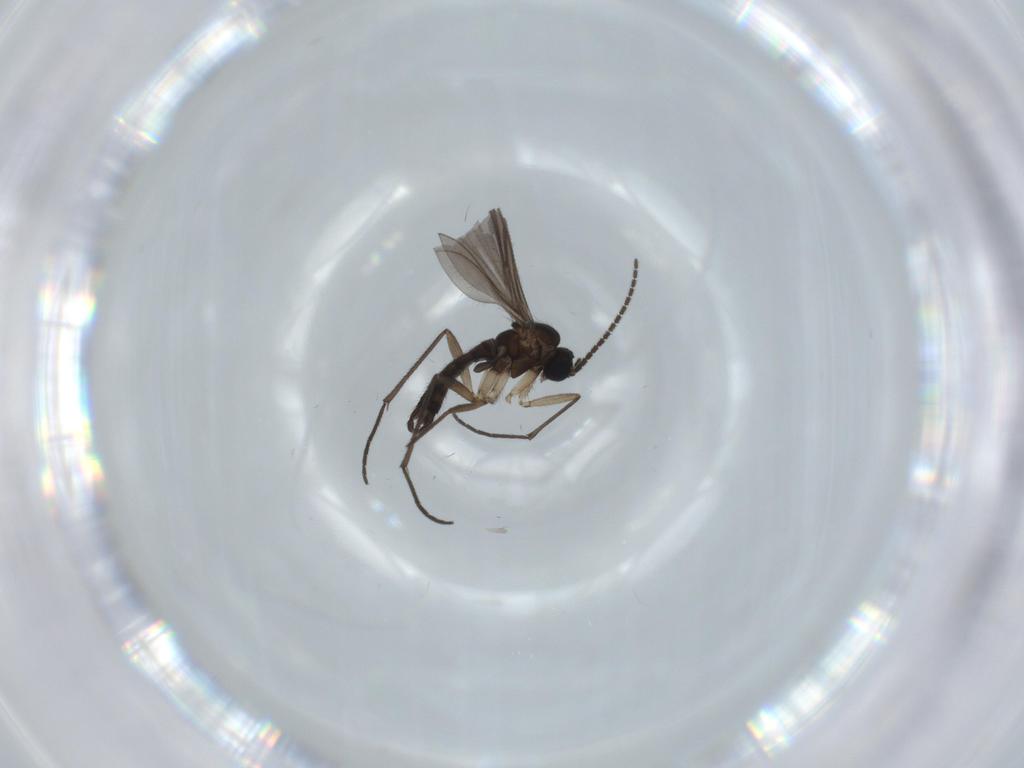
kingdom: Animalia
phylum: Arthropoda
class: Insecta
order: Diptera
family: Sciaridae
